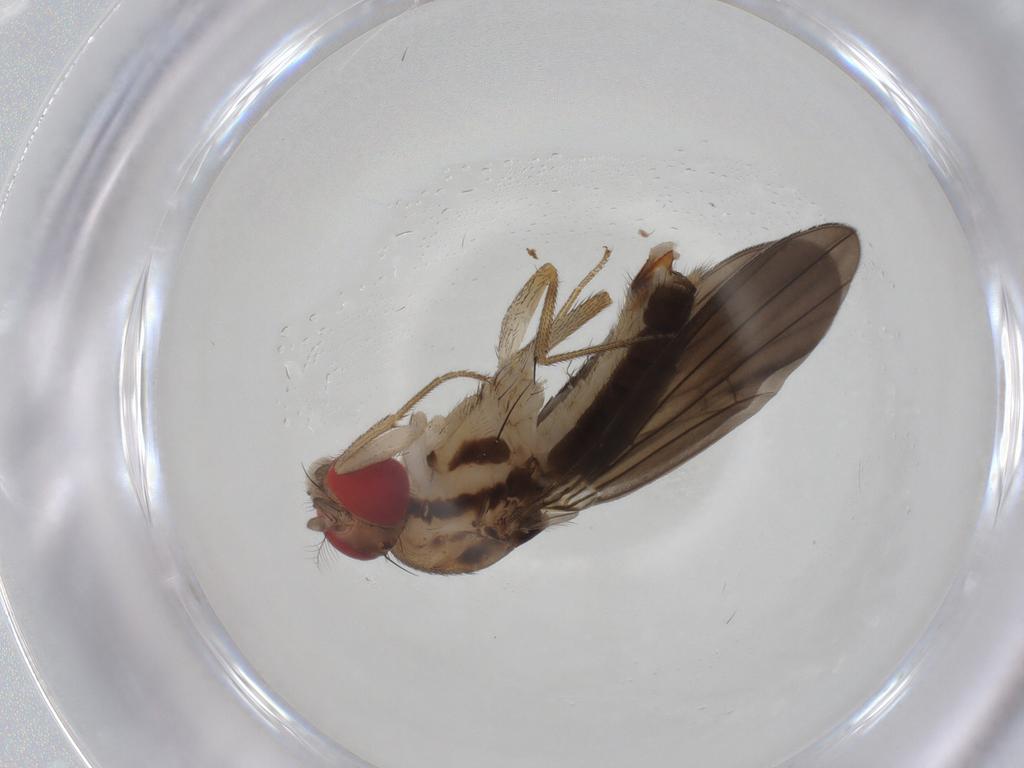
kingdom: Animalia
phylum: Arthropoda
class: Insecta
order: Diptera
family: Drosophilidae
